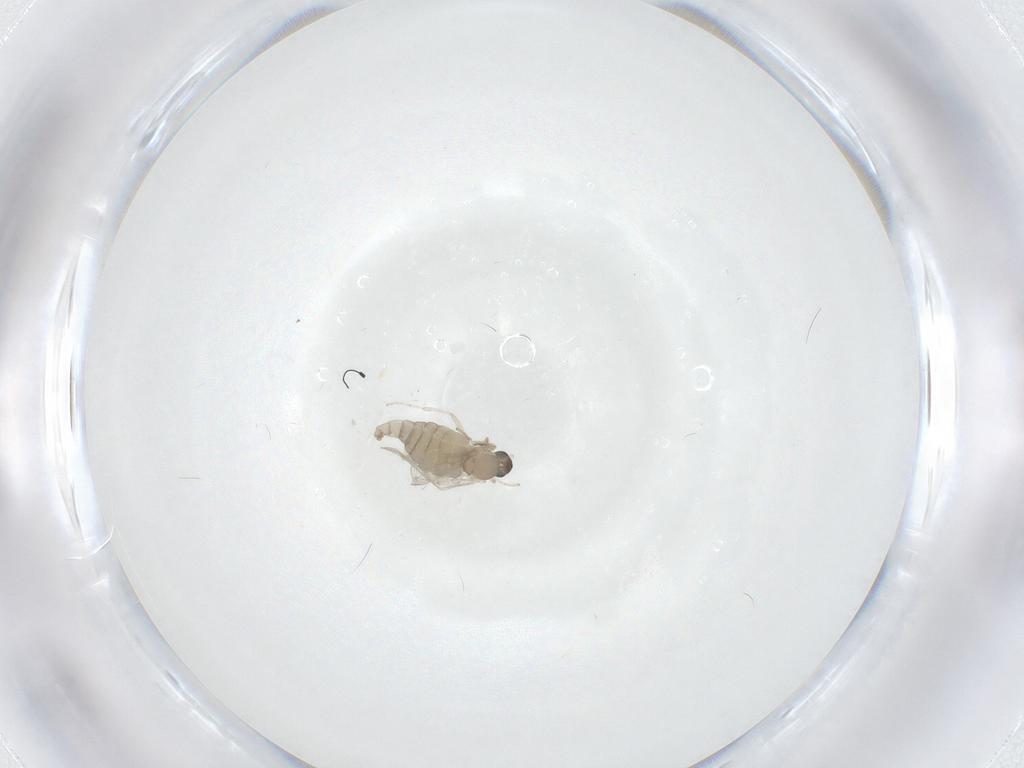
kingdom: Animalia
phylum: Arthropoda
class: Insecta
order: Diptera
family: Cecidomyiidae
